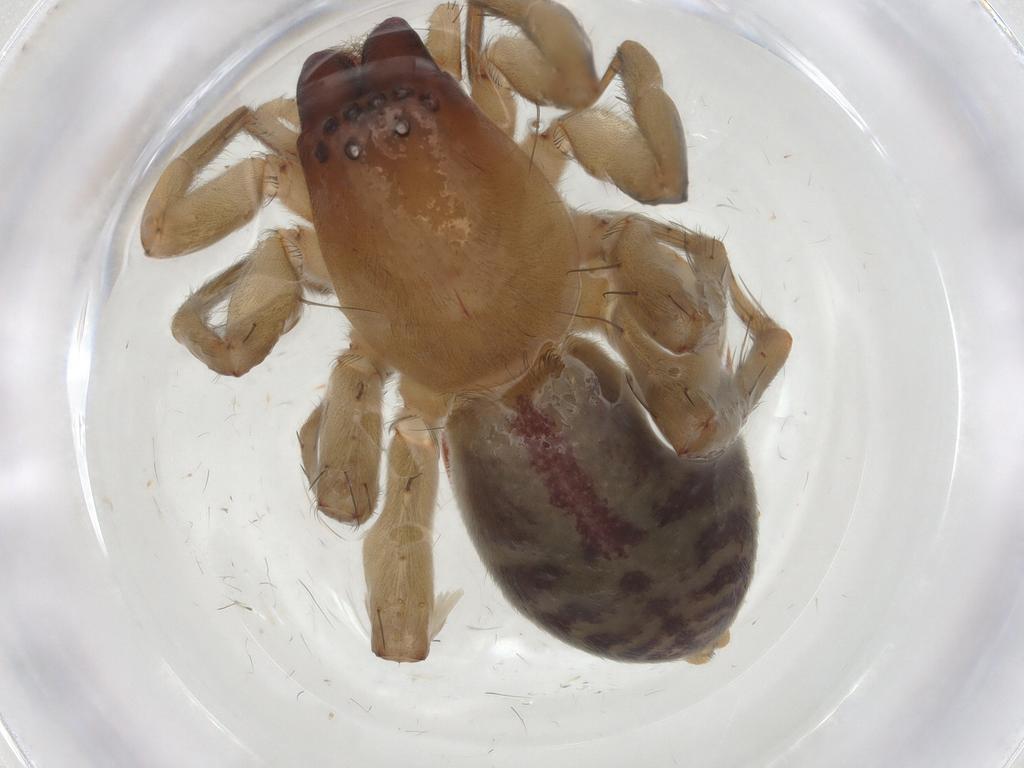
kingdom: Animalia
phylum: Arthropoda
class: Arachnida
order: Araneae
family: Clubionidae
